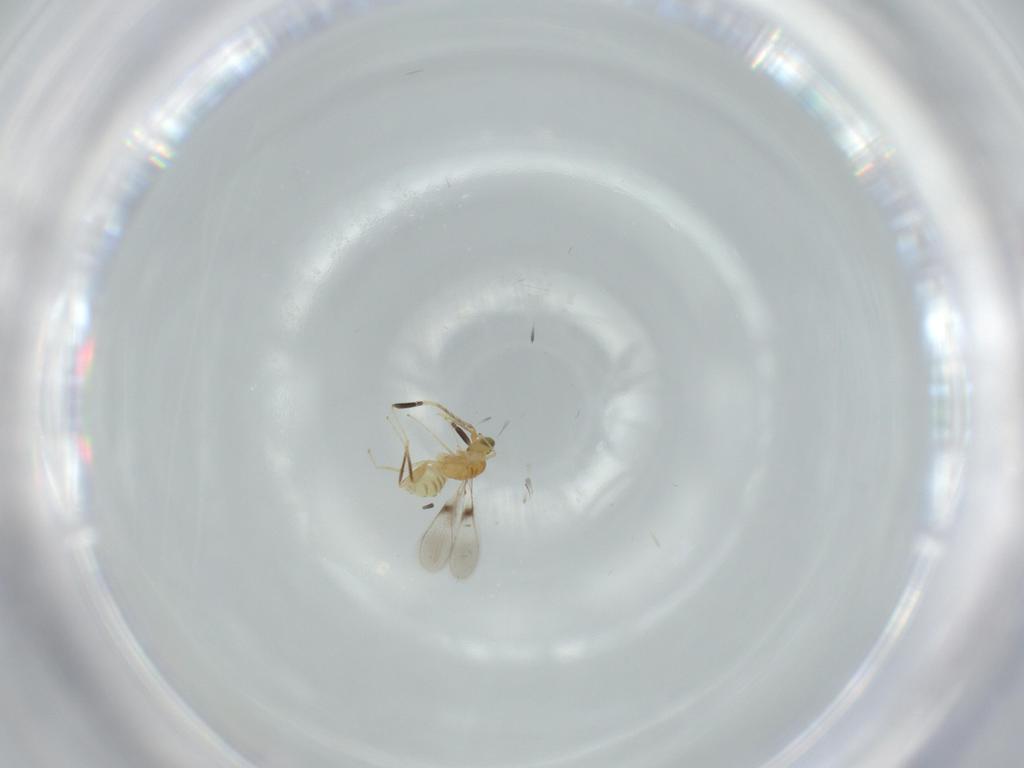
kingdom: Animalia
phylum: Arthropoda
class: Insecta
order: Hymenoptera
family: Mymaridae
